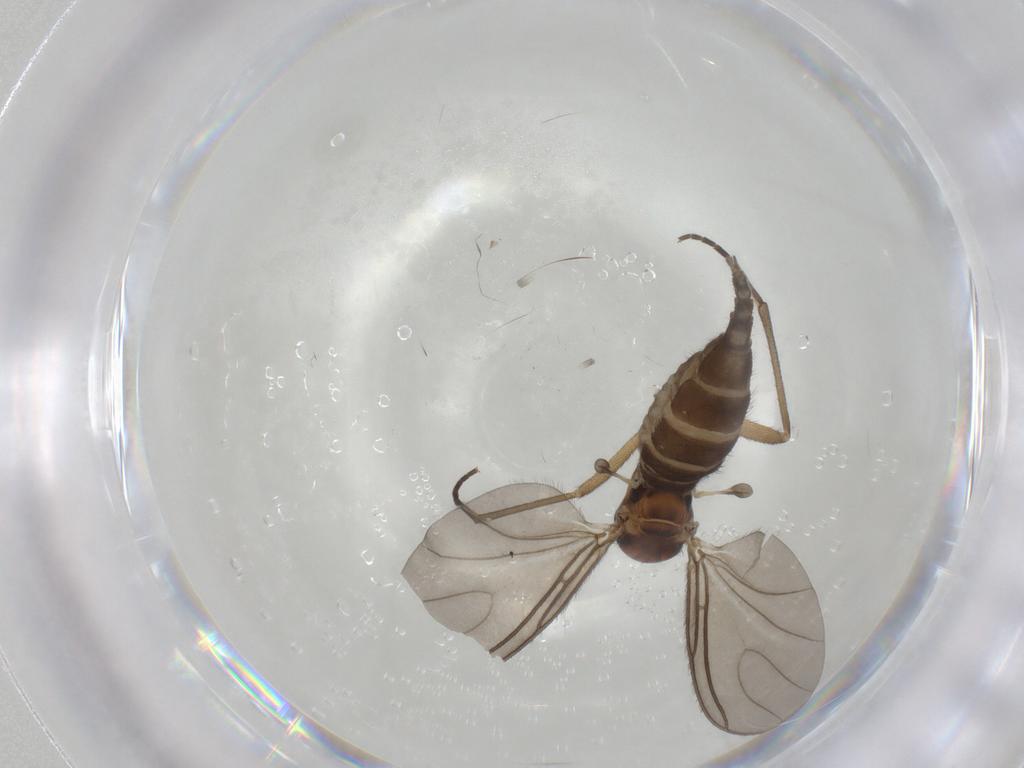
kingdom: Animalia
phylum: Arthropoda
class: Insecta
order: Diptera
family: Sciaridae
